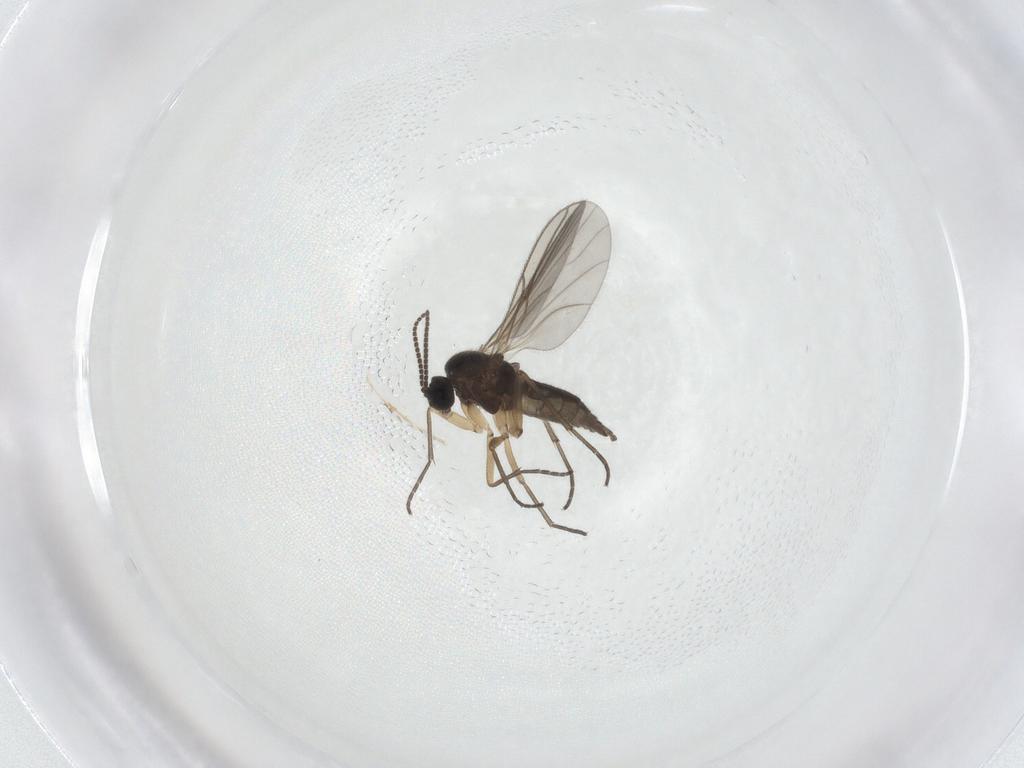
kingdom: Animalia
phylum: Arthropoda
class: Insecta
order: Diptera
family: Sciaridae
